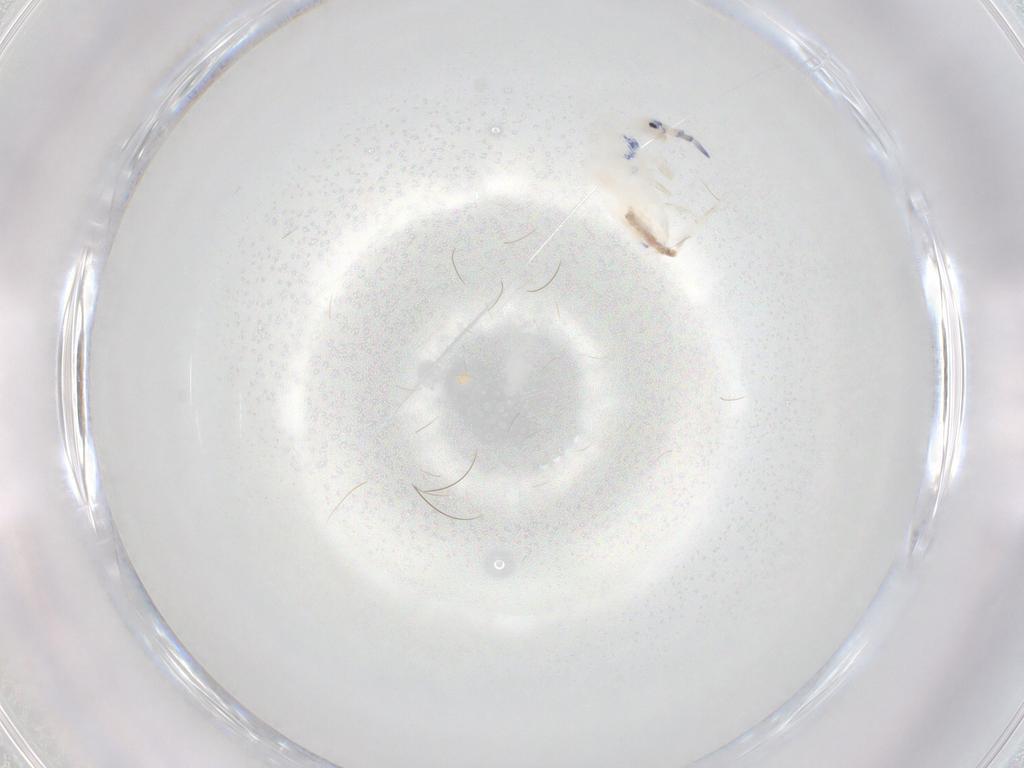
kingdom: Animalia
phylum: Arthropoda
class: Collembola
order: Entomobryomorpha
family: Entomobryidae
